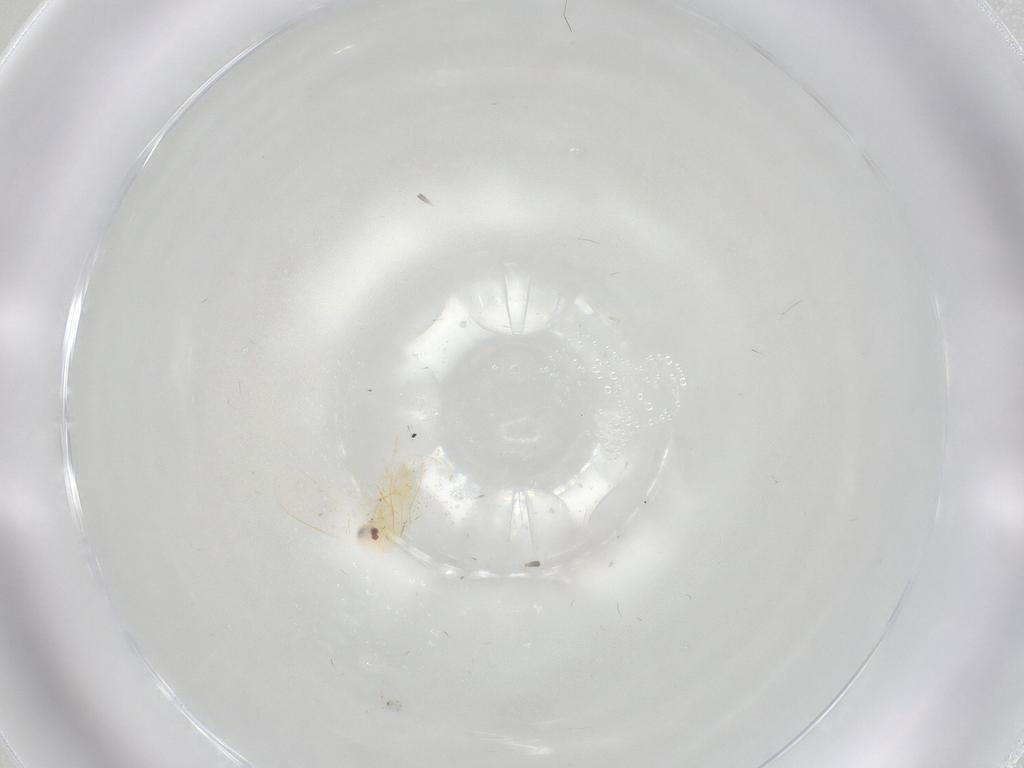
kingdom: Animalia
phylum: Arthropoda
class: Insecta
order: Hemiptera
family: Aleyrodidae
